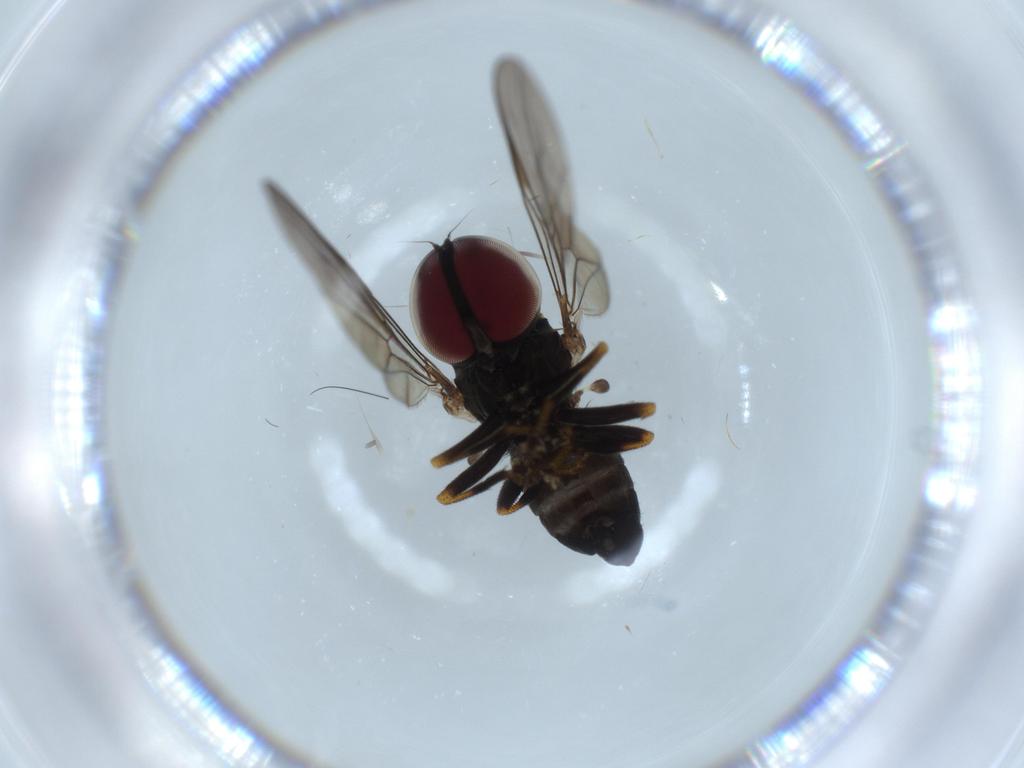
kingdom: Animalia
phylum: Arthropoda
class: Insecta
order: Diptera
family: Pipunculidae
